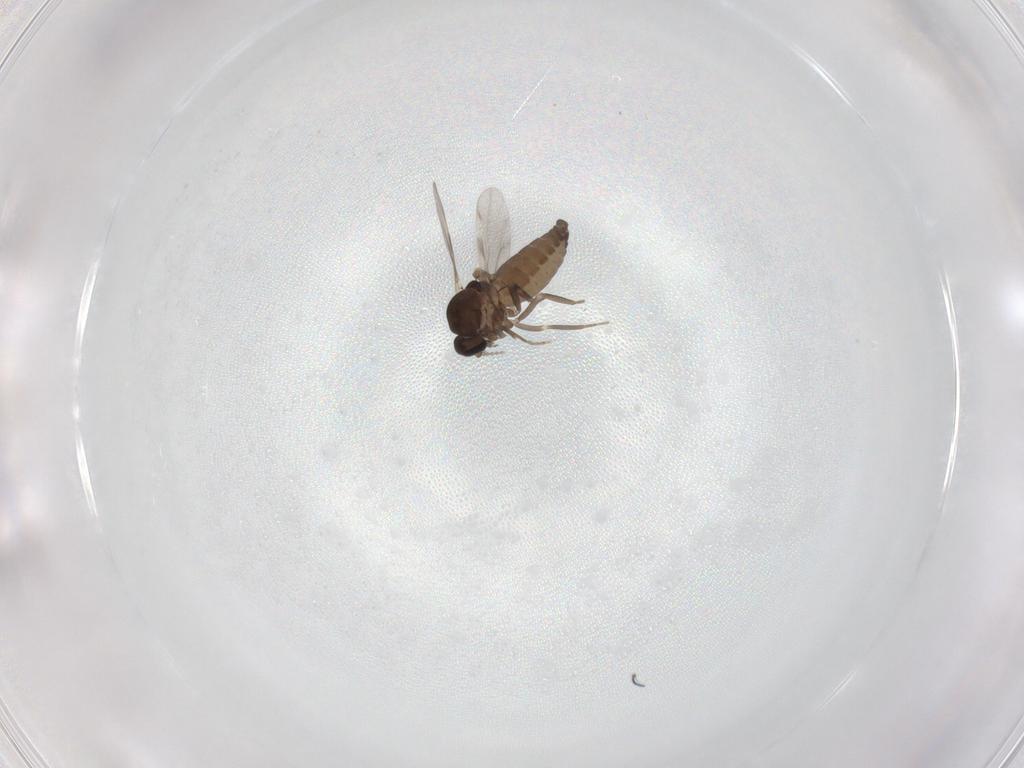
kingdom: Animalia
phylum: Arthropoda
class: Insecta
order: Diptera
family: Ceratopogonidae
